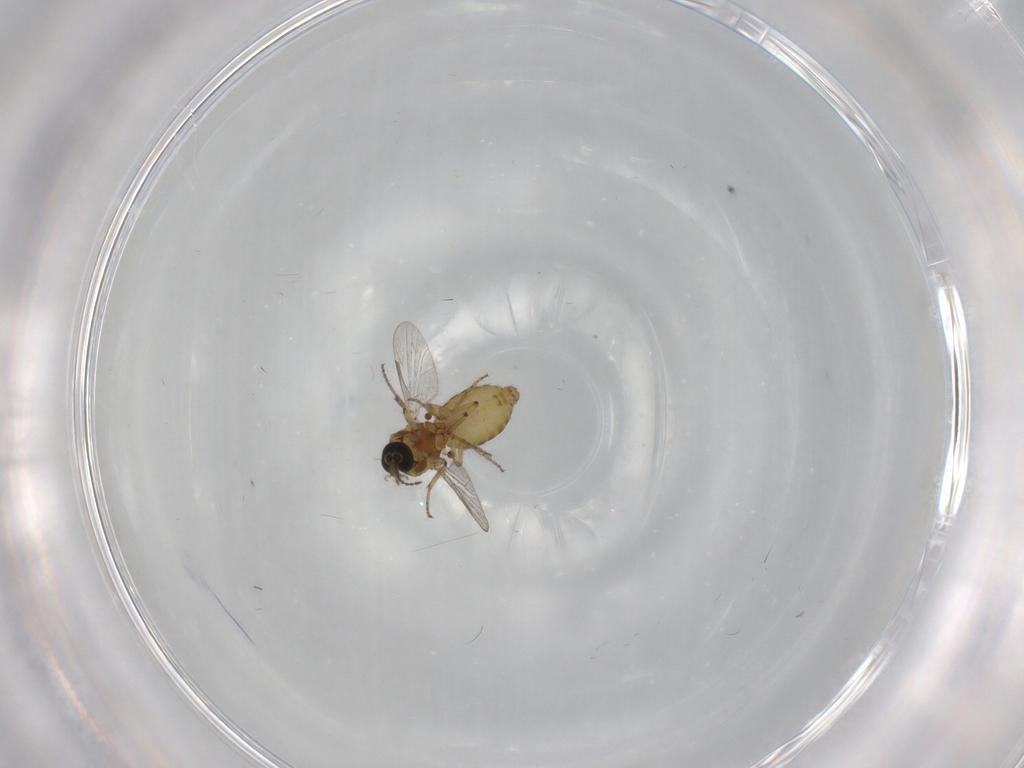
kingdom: Animalia
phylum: Arthropoda
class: Insecta
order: Diptera
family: Ceratopogonidae
